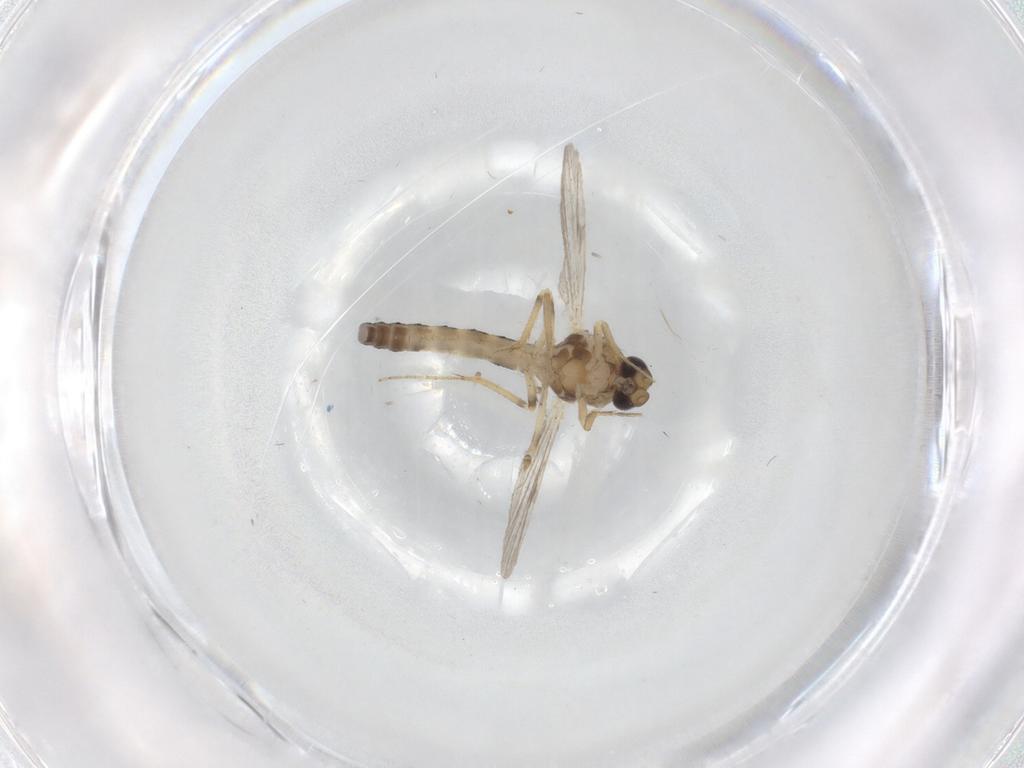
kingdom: Animalia
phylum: Arthropoda
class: Insecta
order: Diptera
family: Ceratopogonidae
